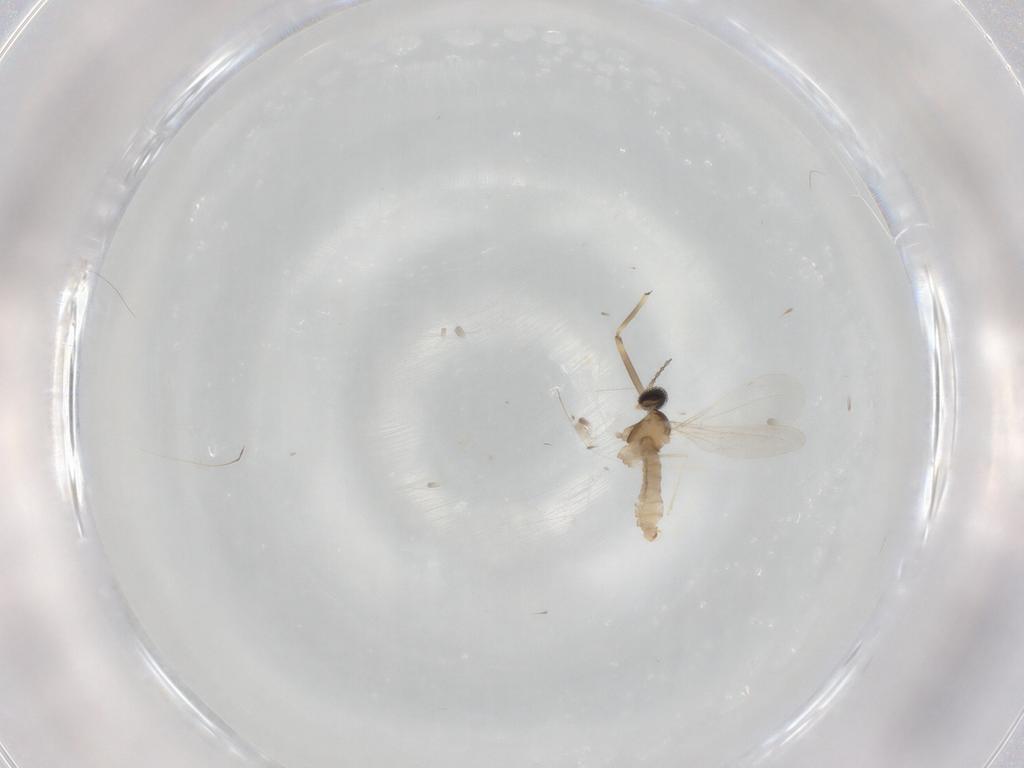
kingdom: Animalia
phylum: Arthropoda
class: Insecta
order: Diptera
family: Cecidomyiidae
